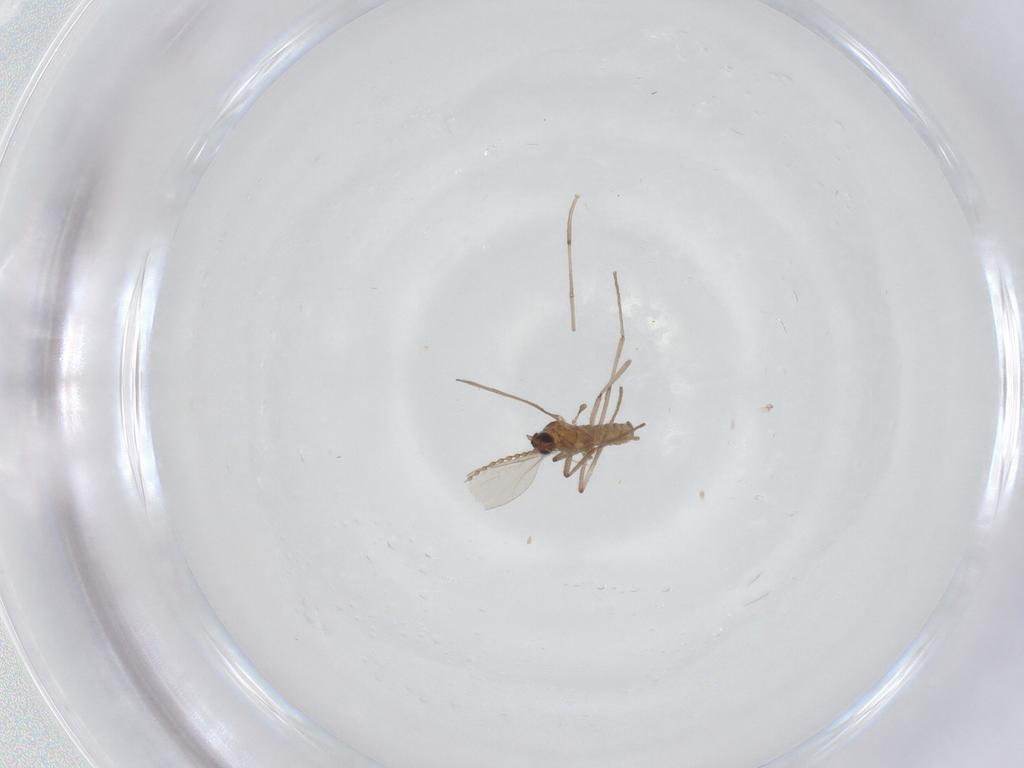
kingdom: Animalia
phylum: Arthropoda
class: Insecta
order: Diptera
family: Cecidomyiidae
